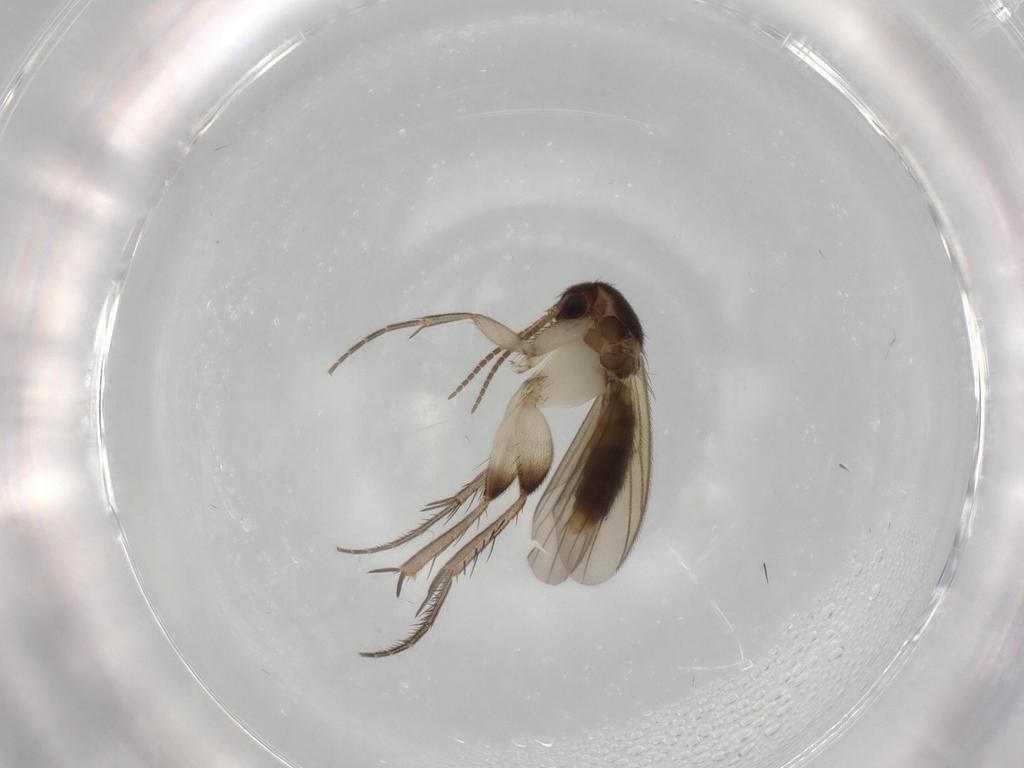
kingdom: Animalia
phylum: Arthropoda
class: Insecta
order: Diptera
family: Mycetophilidae
